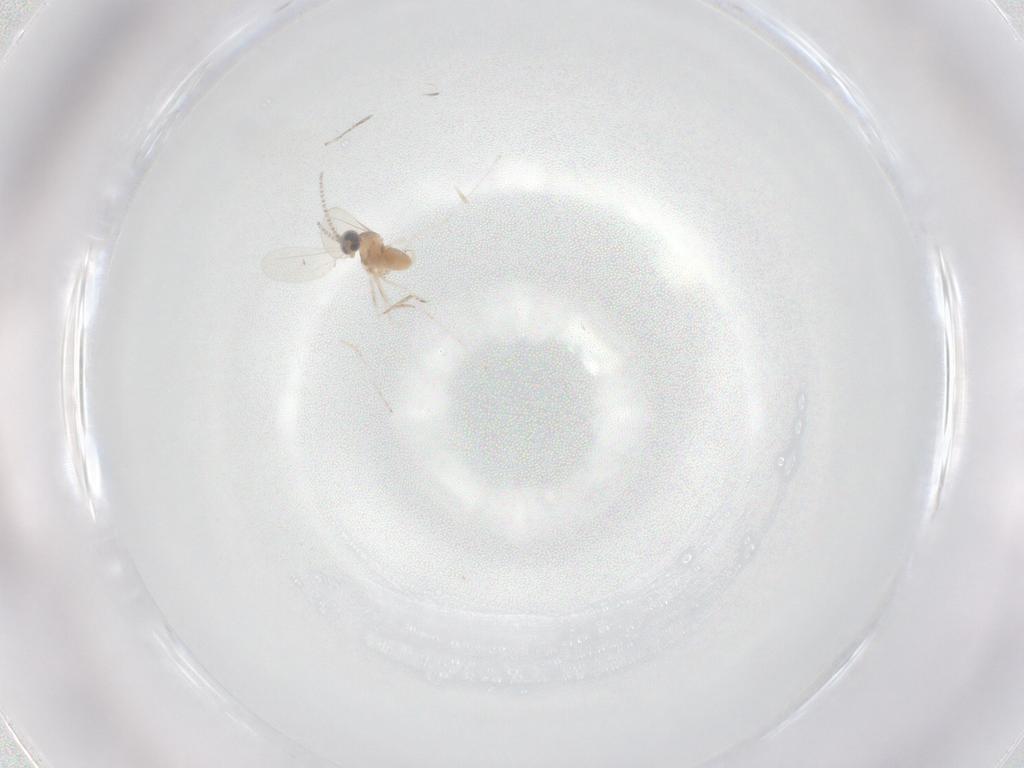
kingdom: Animalia
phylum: Arthropoda
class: Insecta
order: Diptera
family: Cecidomyiidae
